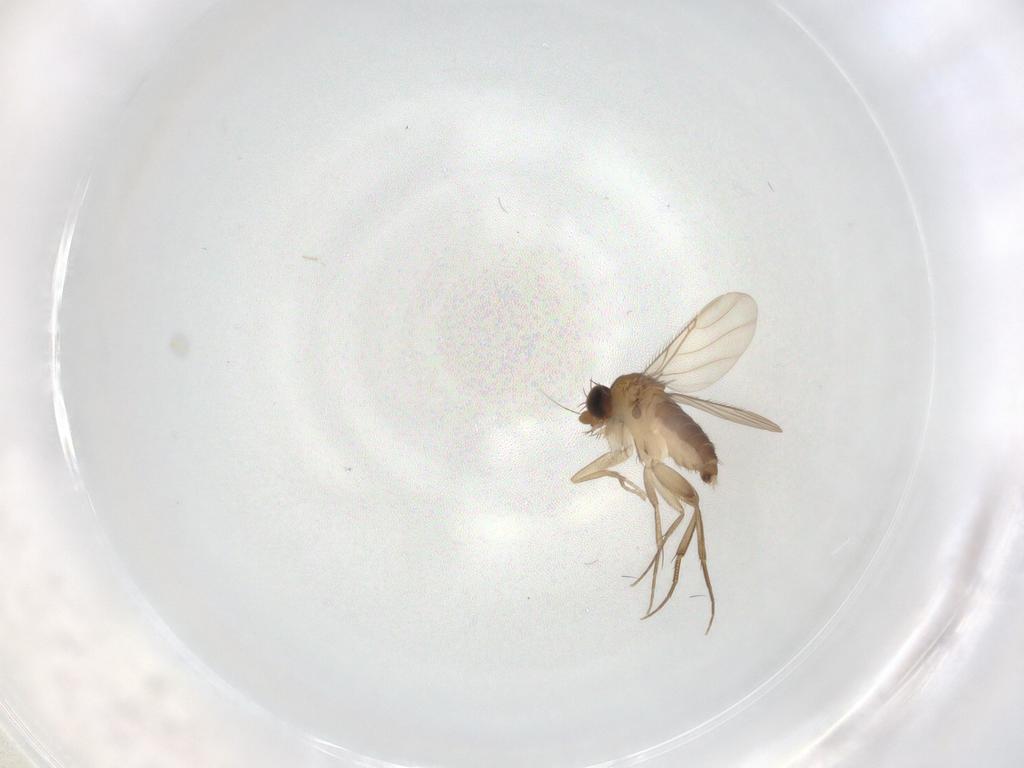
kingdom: Animalia
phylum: Arthropoda
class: Insecta
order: Diptera
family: Phoridae
